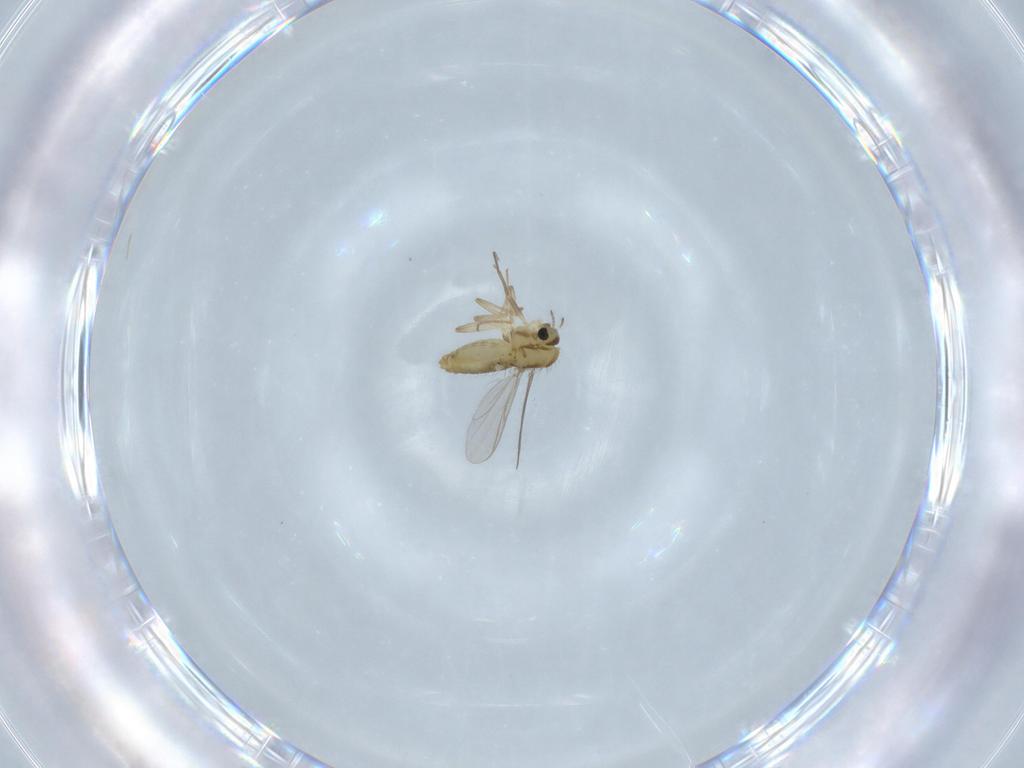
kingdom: Animalia
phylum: Arthropoda
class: Insecta
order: Diptera
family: Chironomidae
